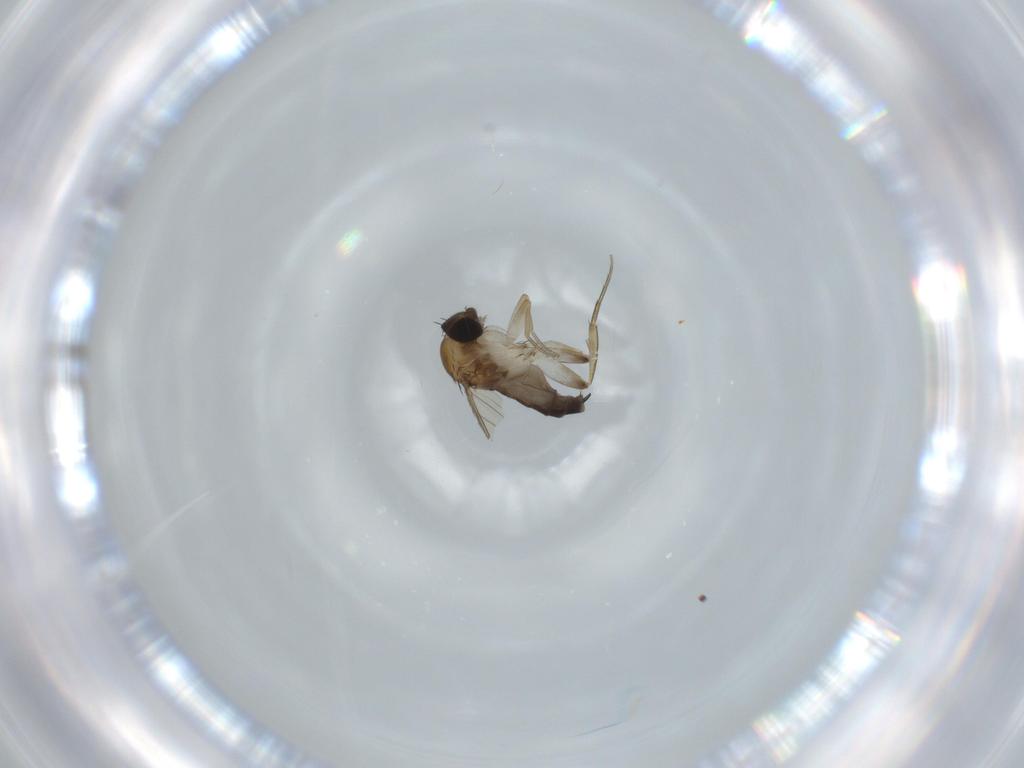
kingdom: Animalia
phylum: Arthropoda
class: Insecta
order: Diptera
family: Phoridae
